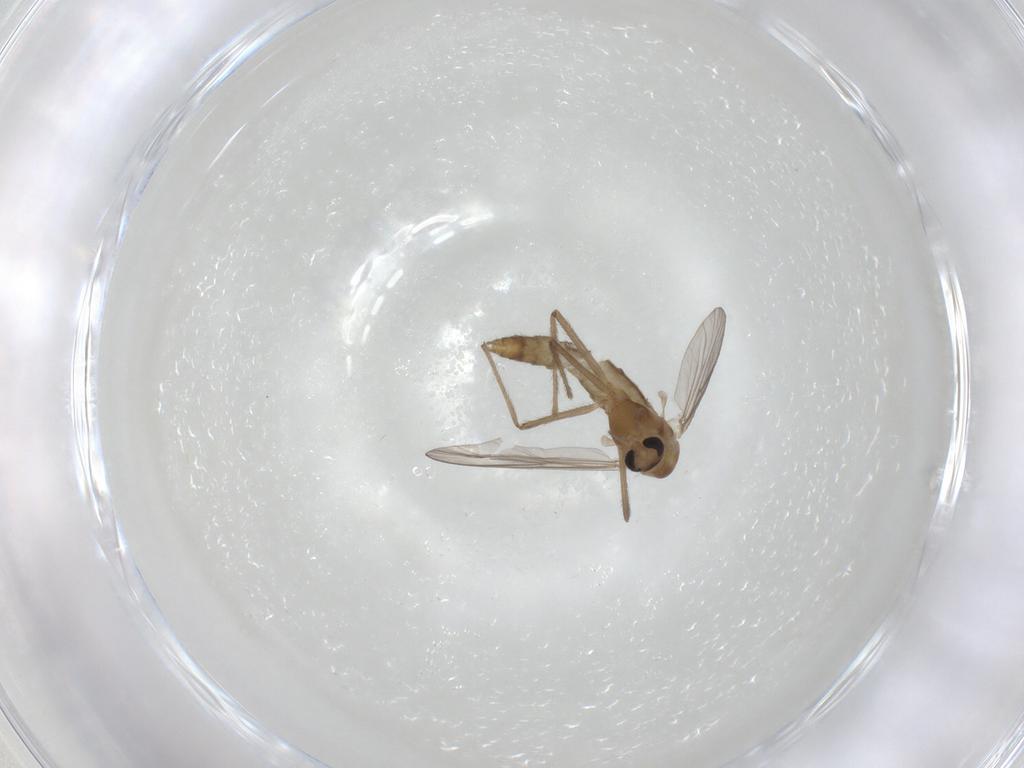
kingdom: Animalia
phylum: Arthropoda
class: Insecta
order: Diptera
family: Chironomidae
